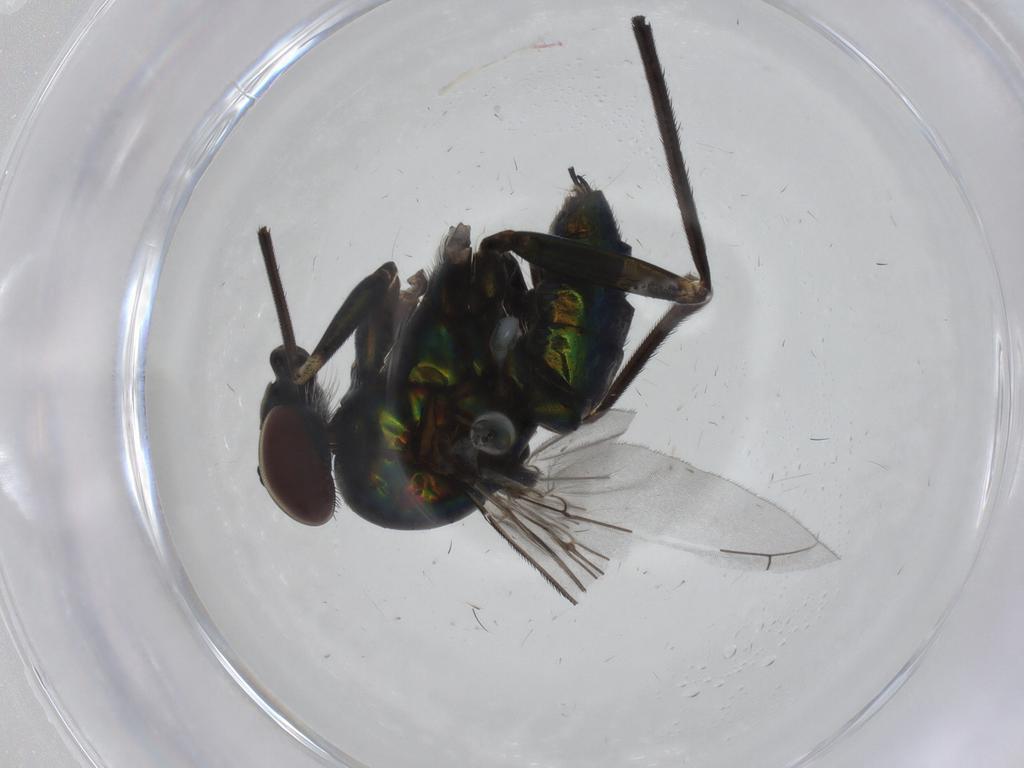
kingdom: Animalia
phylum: Arthropoda
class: Insecta
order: Diptera
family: Dolichopodidae
